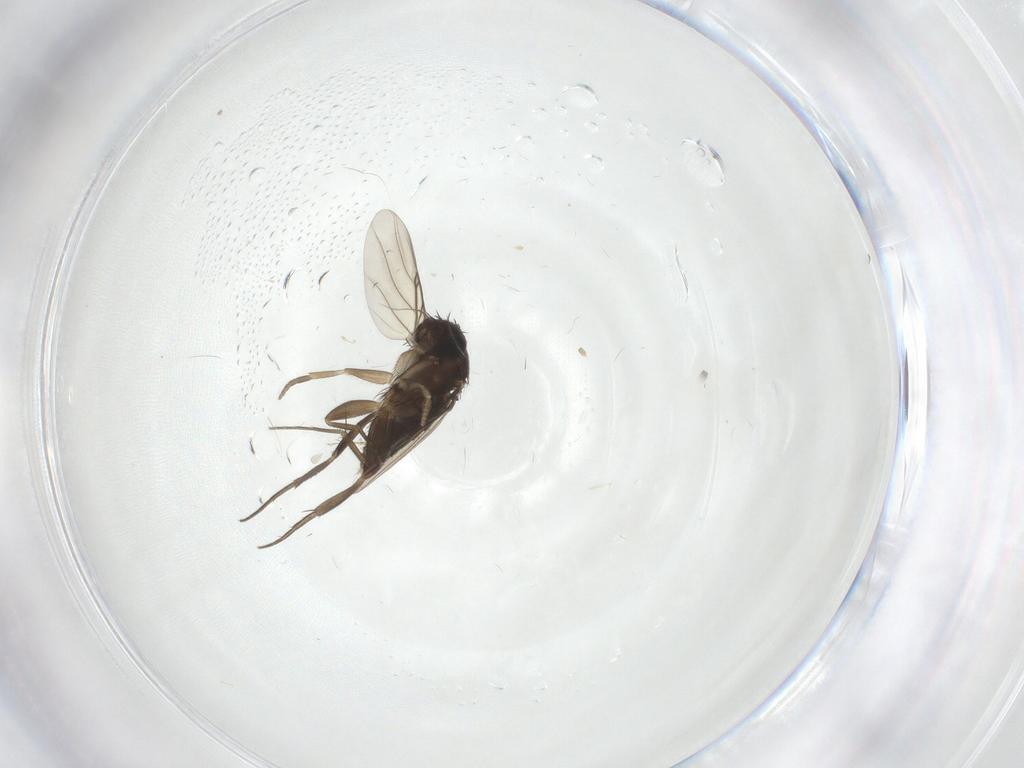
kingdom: Animalia
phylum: Arthropoda
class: Insecta
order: Diptera
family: Phoridae
